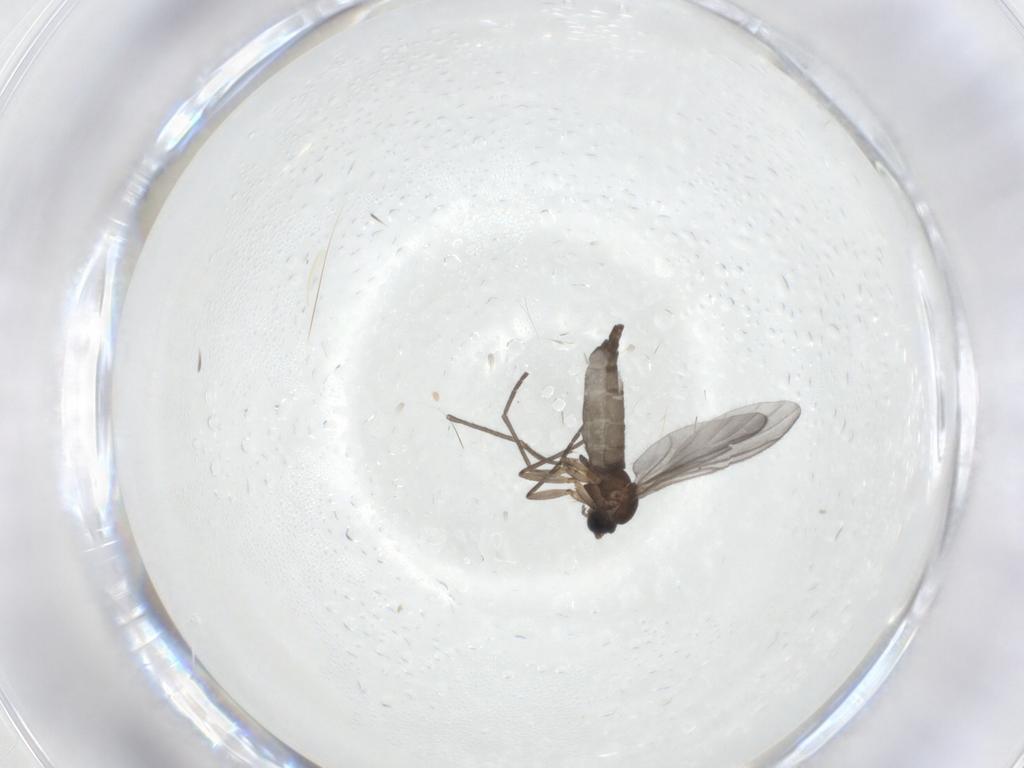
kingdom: Animalia
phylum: Arthropoda
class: Insecta
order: Diptera
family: Sciaridae
